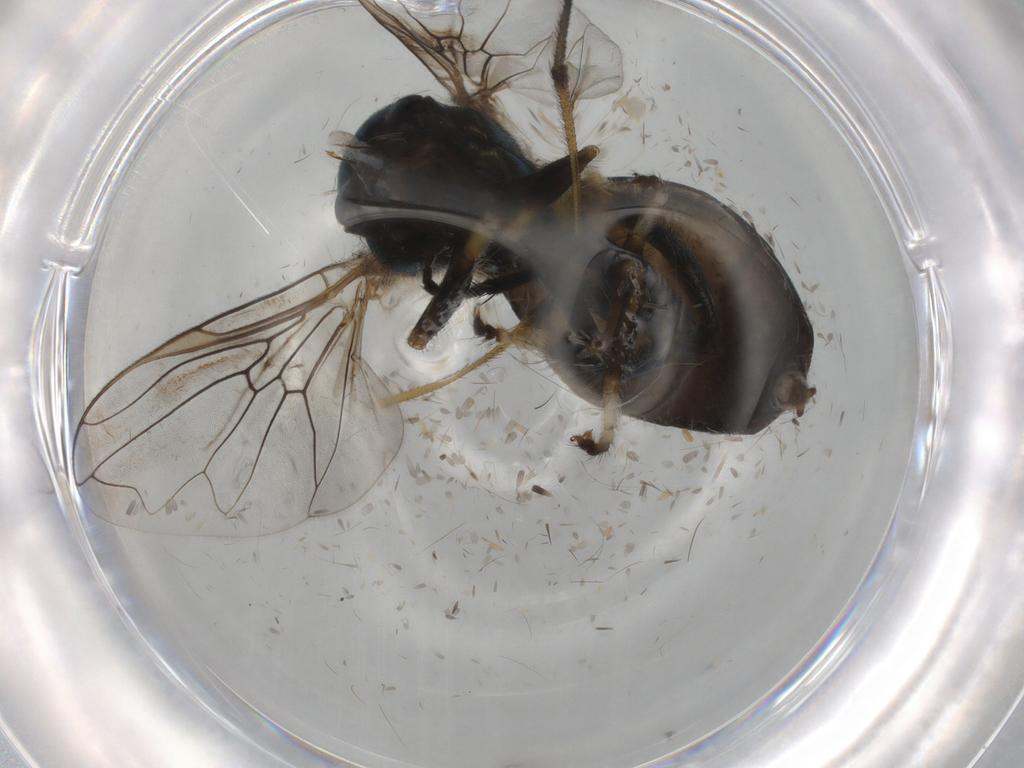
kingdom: Animalia
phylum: Arthropoda
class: Insecta
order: Diptera
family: Syrphidae
